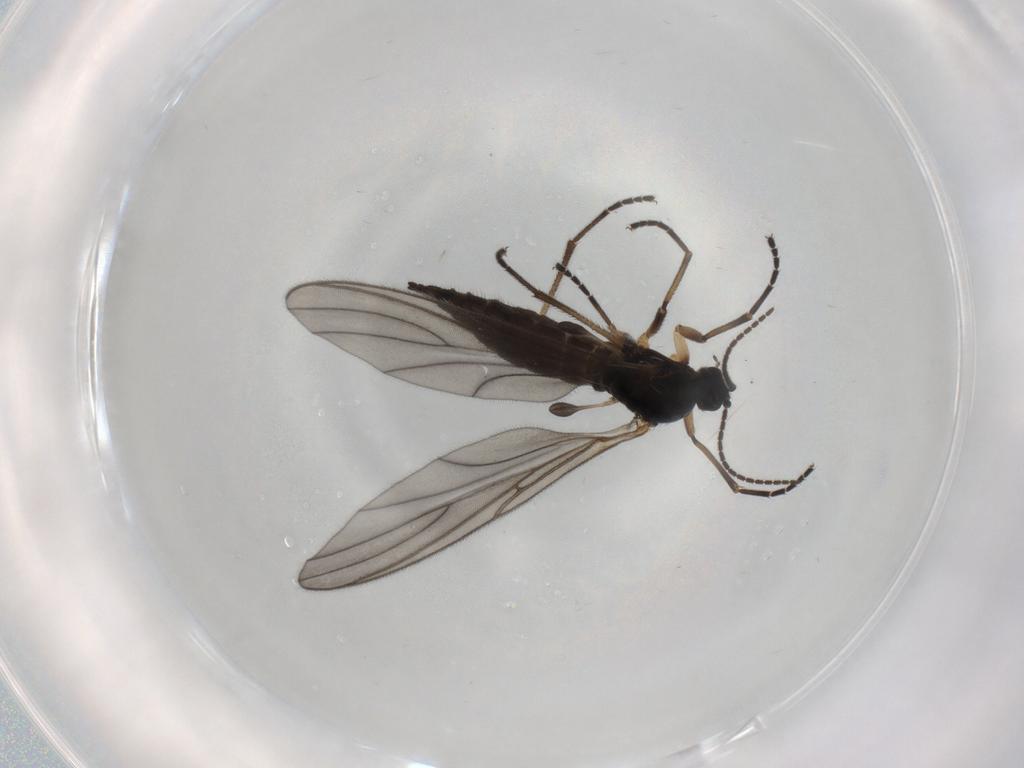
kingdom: Animalia
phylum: Arthropoda
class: Insecta
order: Diptera
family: Sciaridae
